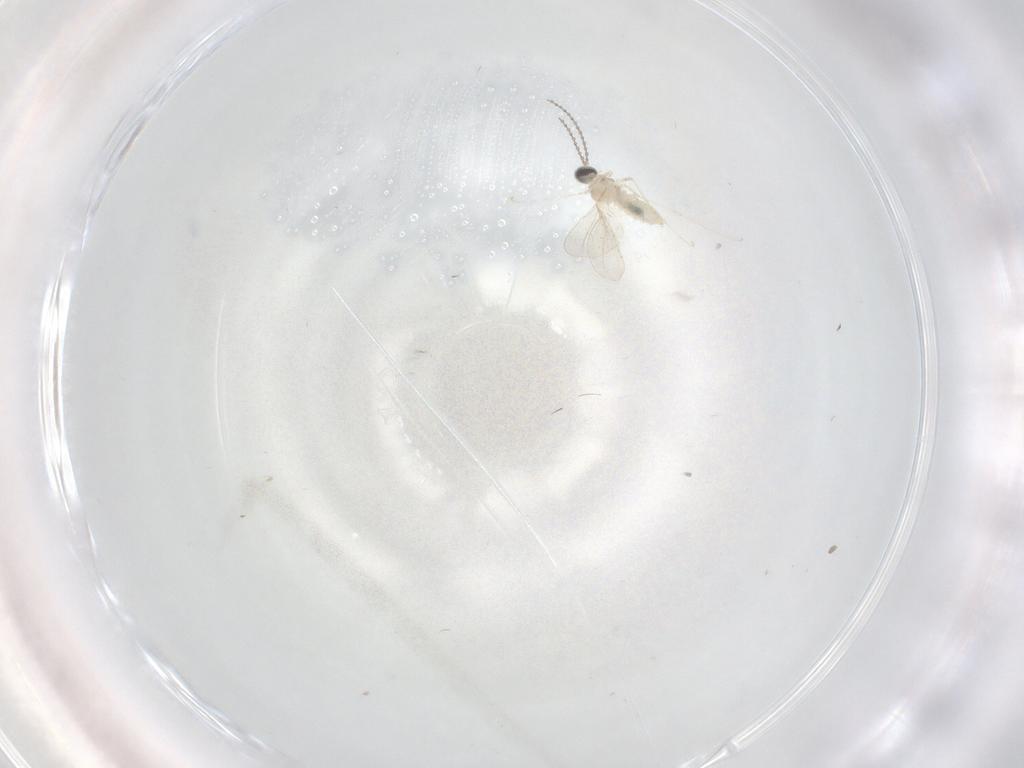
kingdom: Animalia
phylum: Arthropoda
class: Insecta
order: Diptera
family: Cecidomyiidae
